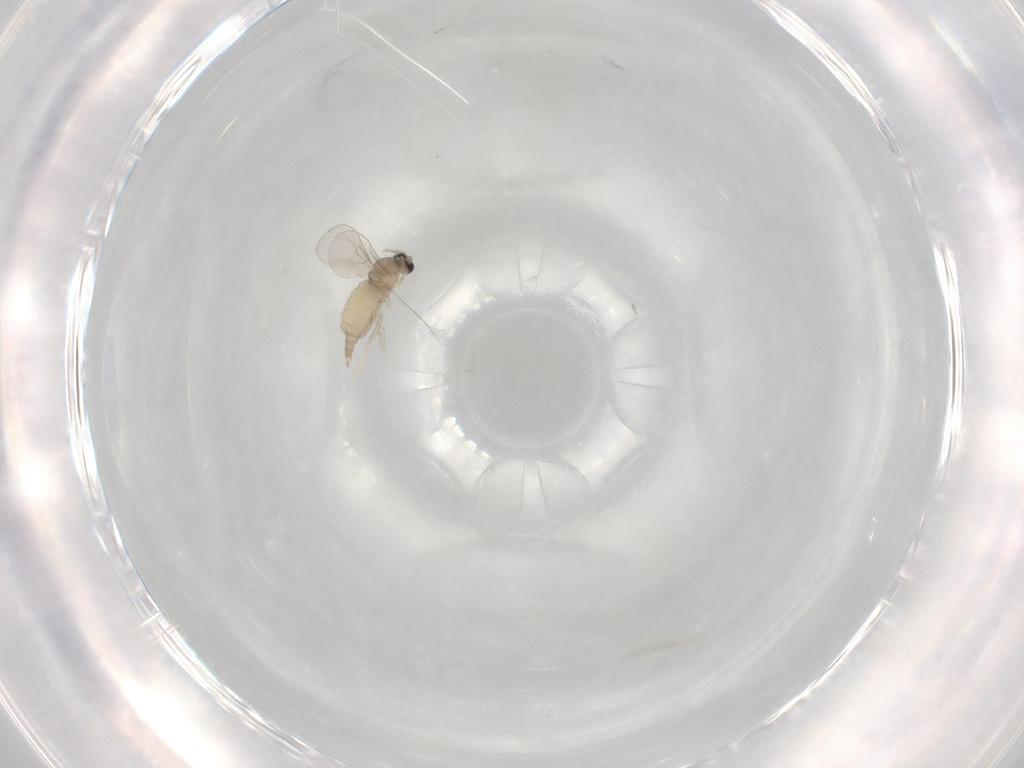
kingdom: Animalia
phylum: Arthropoda
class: Insecta
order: Diptera
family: Cecidomyiidae
